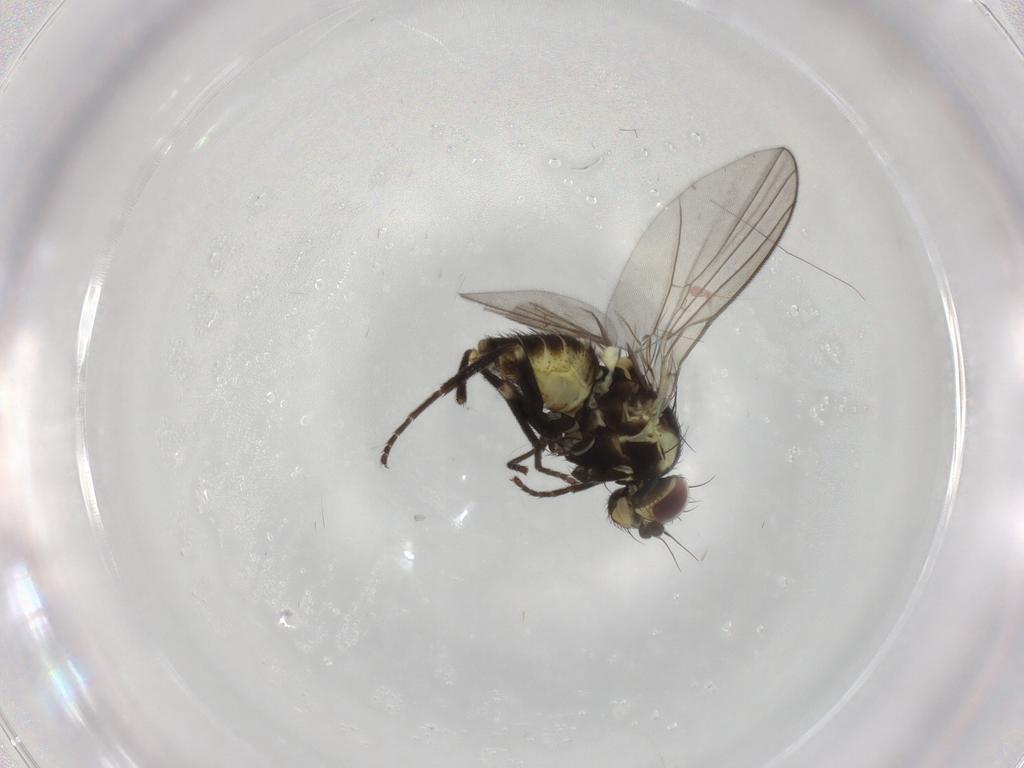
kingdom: Animalia
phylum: Arthropoda
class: Insecta
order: Diptera
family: Agromyzidae
